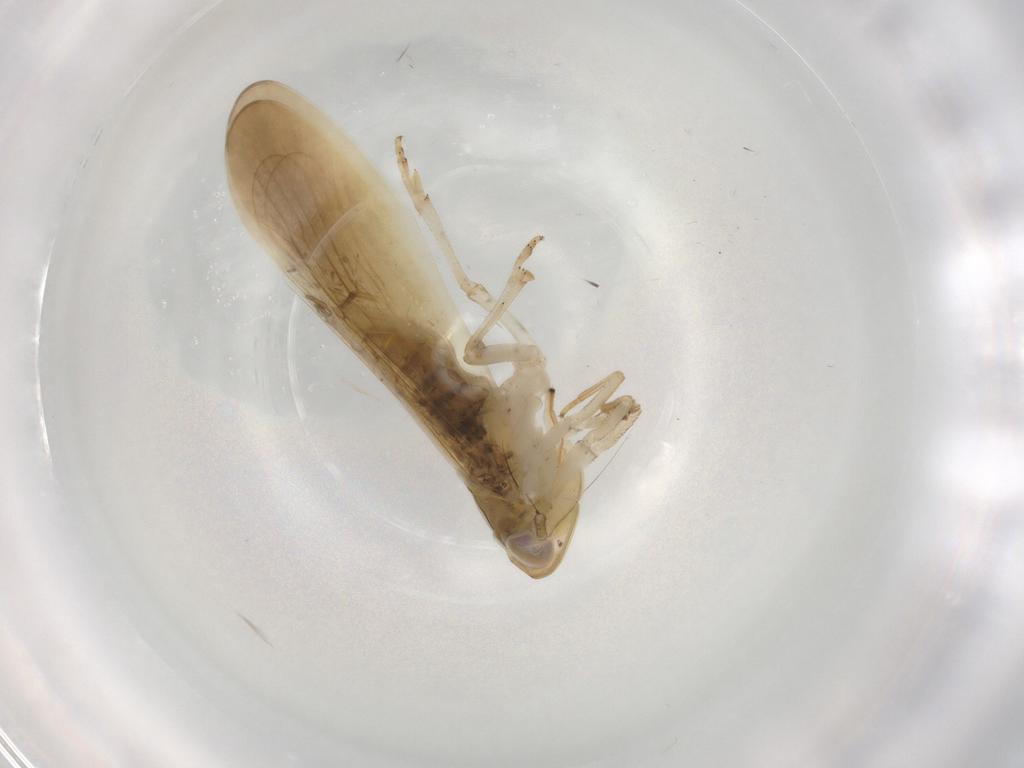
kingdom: Animalia
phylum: Arthropoda
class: Insecta
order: Hemiptera
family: Delphacidae
